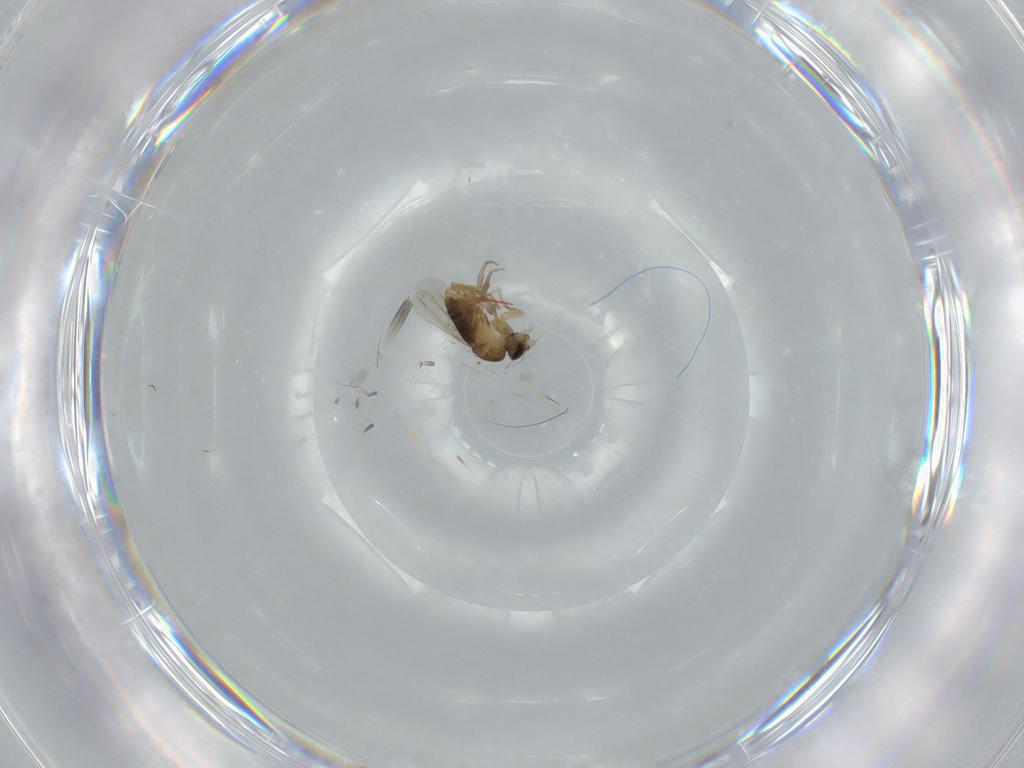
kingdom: Animalia
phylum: Arthropoda
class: Insecta
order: Diptera
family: Phoridae
